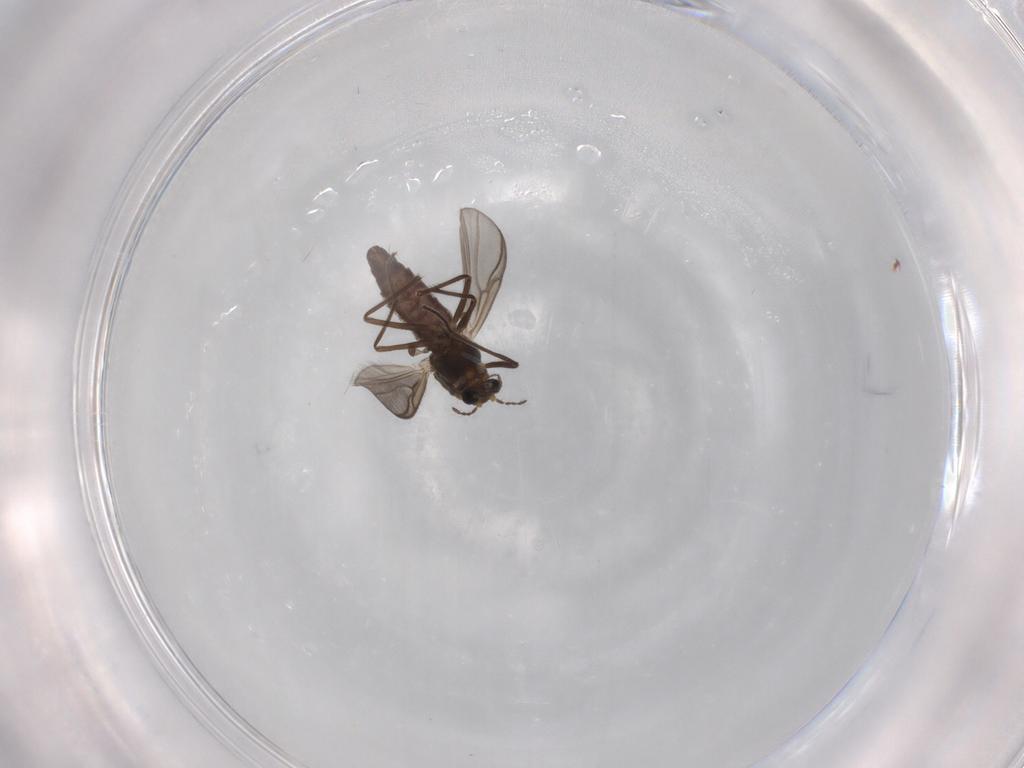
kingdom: Animalia
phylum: Arthropoda
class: Insecta
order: Diptera
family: Chironomidae
